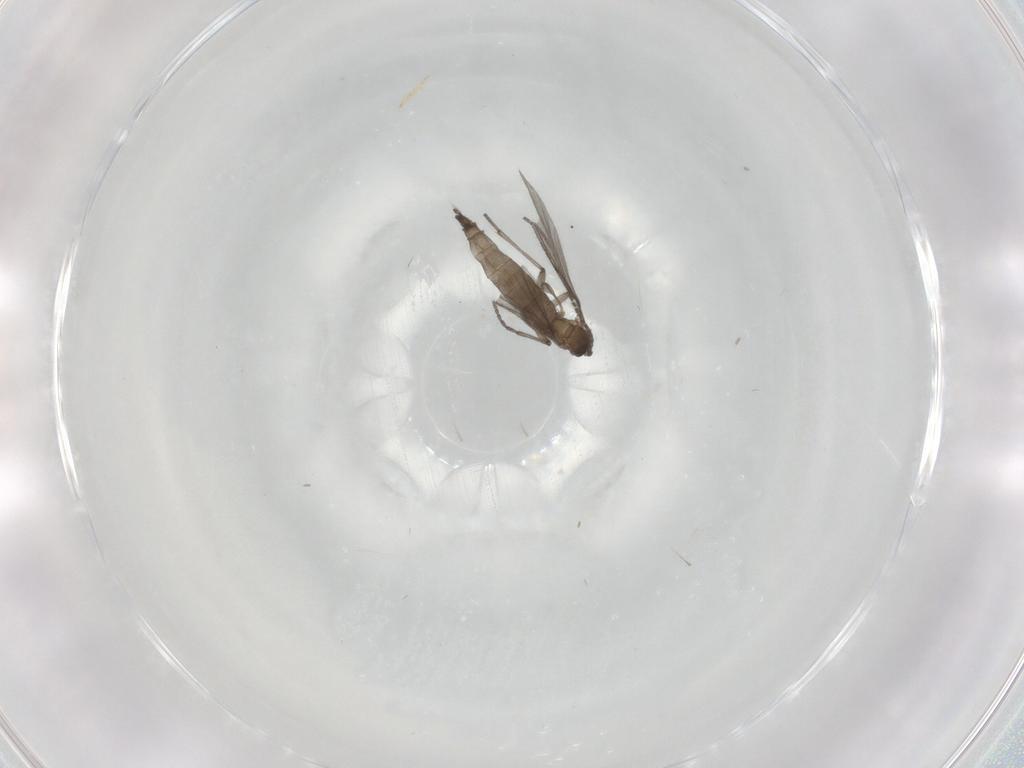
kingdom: Animalia
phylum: Arthropoda
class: Insecta
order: Diptera
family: Sciaridae
